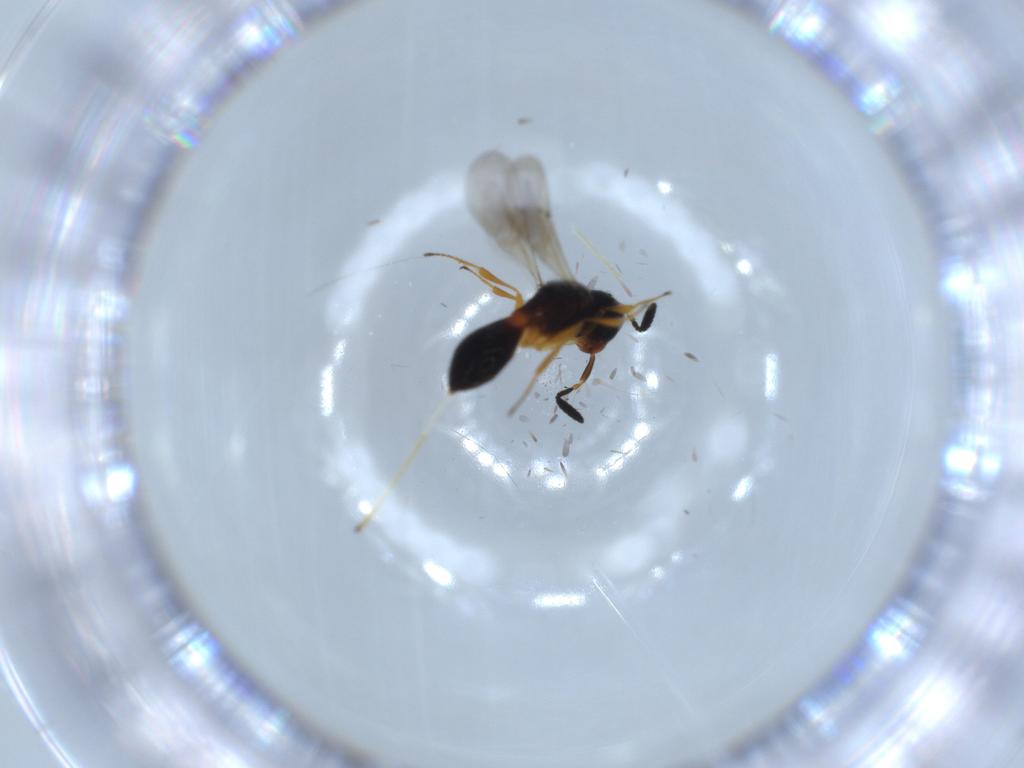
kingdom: Animalia
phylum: Arthropoda
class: Insecta
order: Hymenoptera
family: Scelionidae
